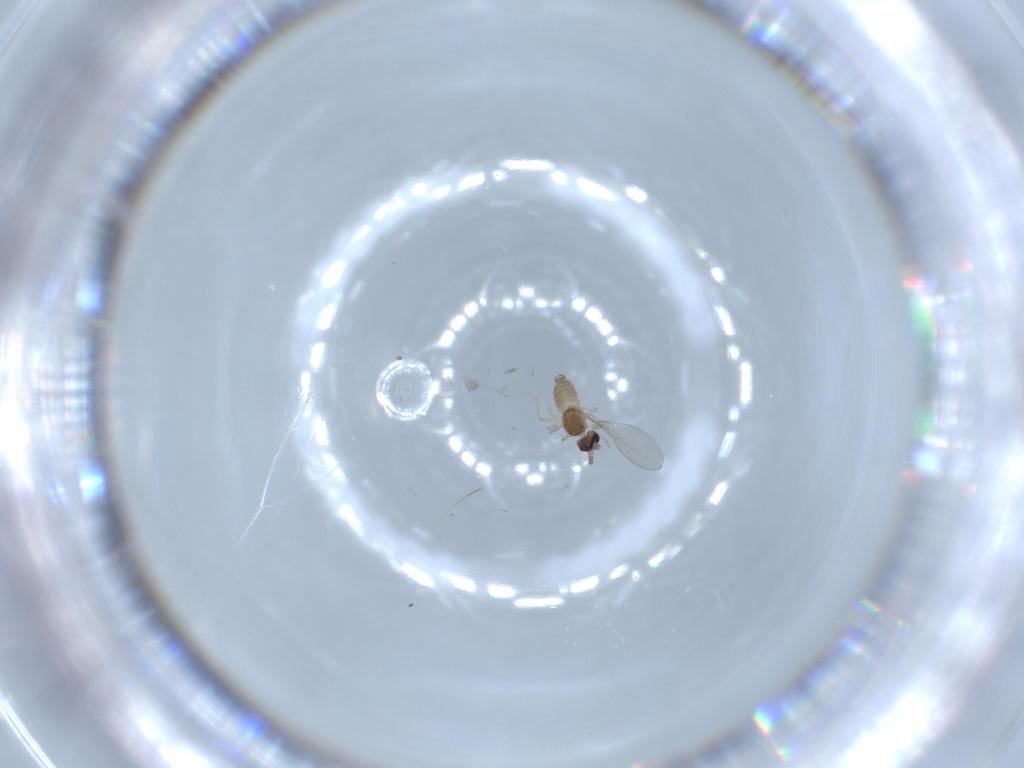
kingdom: Animalia
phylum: Arthropoda
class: Insecta
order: Diptera
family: Cecidomyiidae
